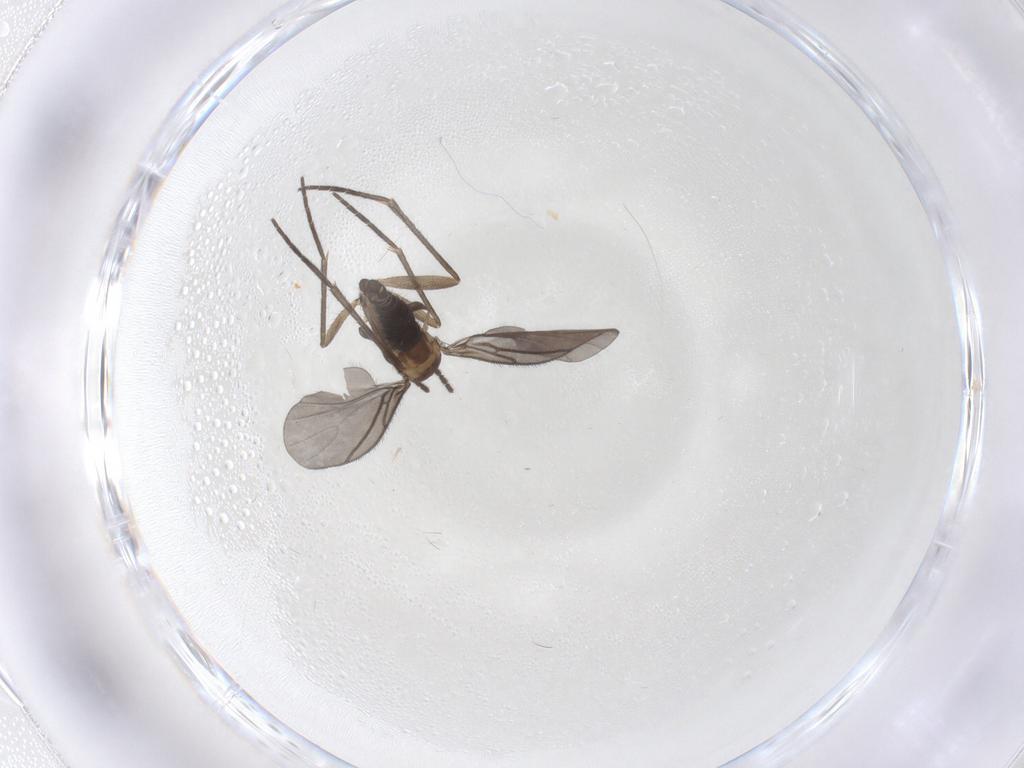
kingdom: Animalia
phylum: Arthropoda
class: Insecta
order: Diptera
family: Sciaridae
